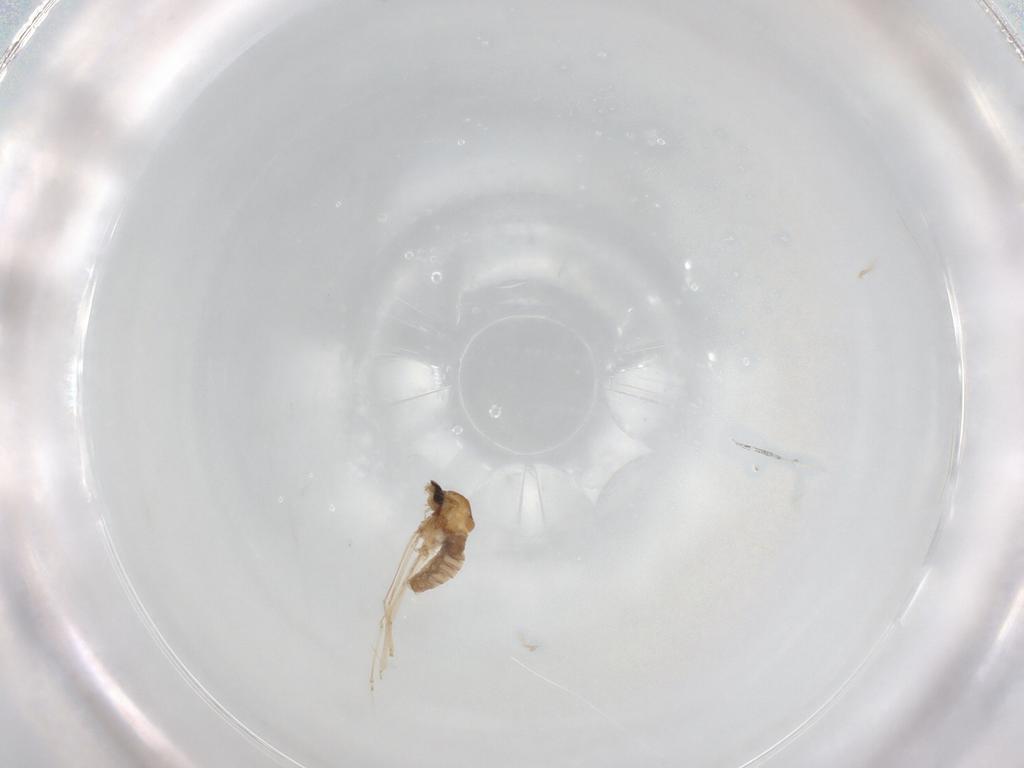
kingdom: Animalia
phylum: Arthropoda
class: Insecta
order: Diptera
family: Cecidomyiidae
